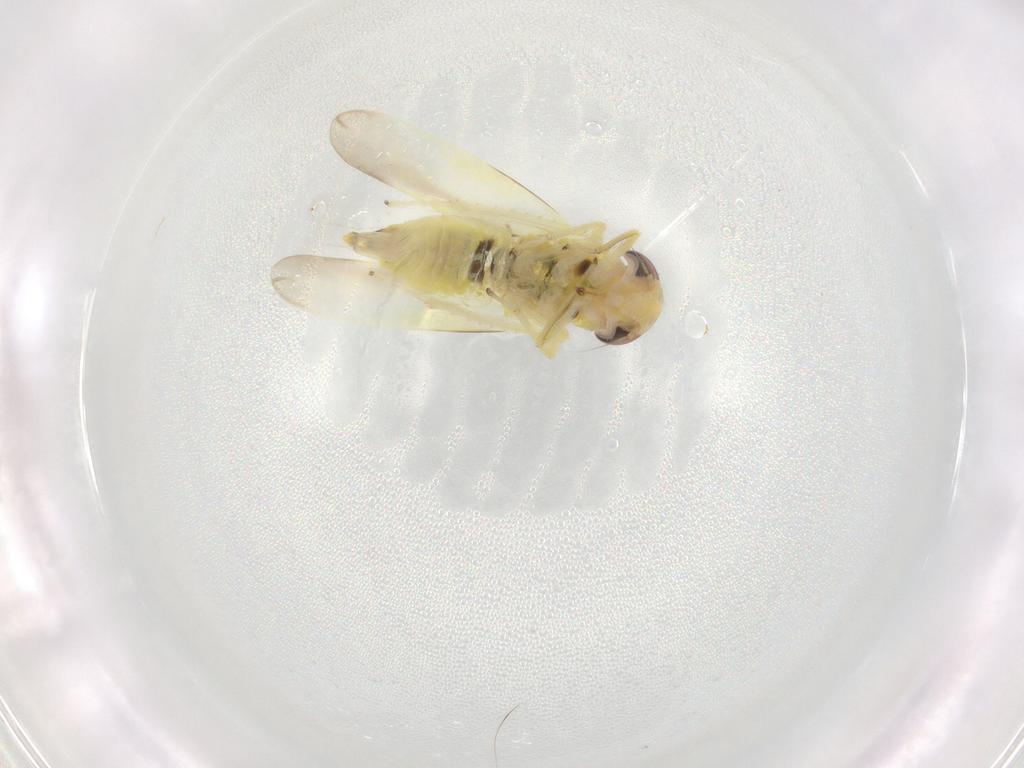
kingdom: Animalia
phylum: Arthropoda
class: Insecta
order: Hemiptera
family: Cicadellidae
